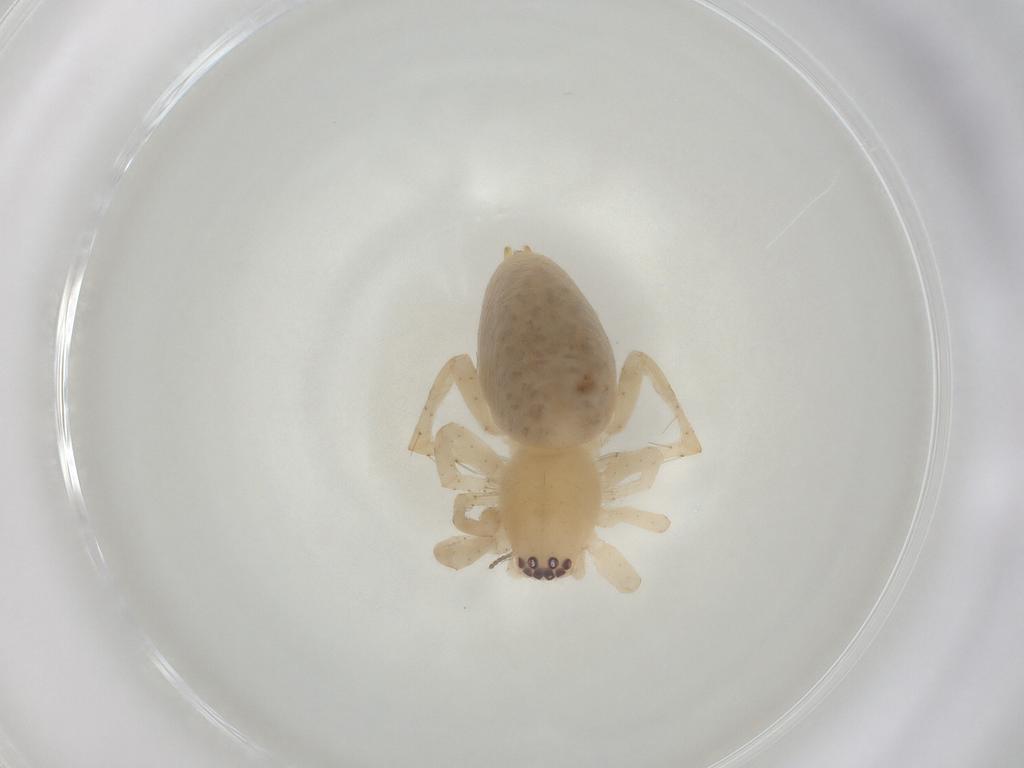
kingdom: Animalia
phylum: Arthropoda
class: Arachnida
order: Araneae
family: Clubionidae
